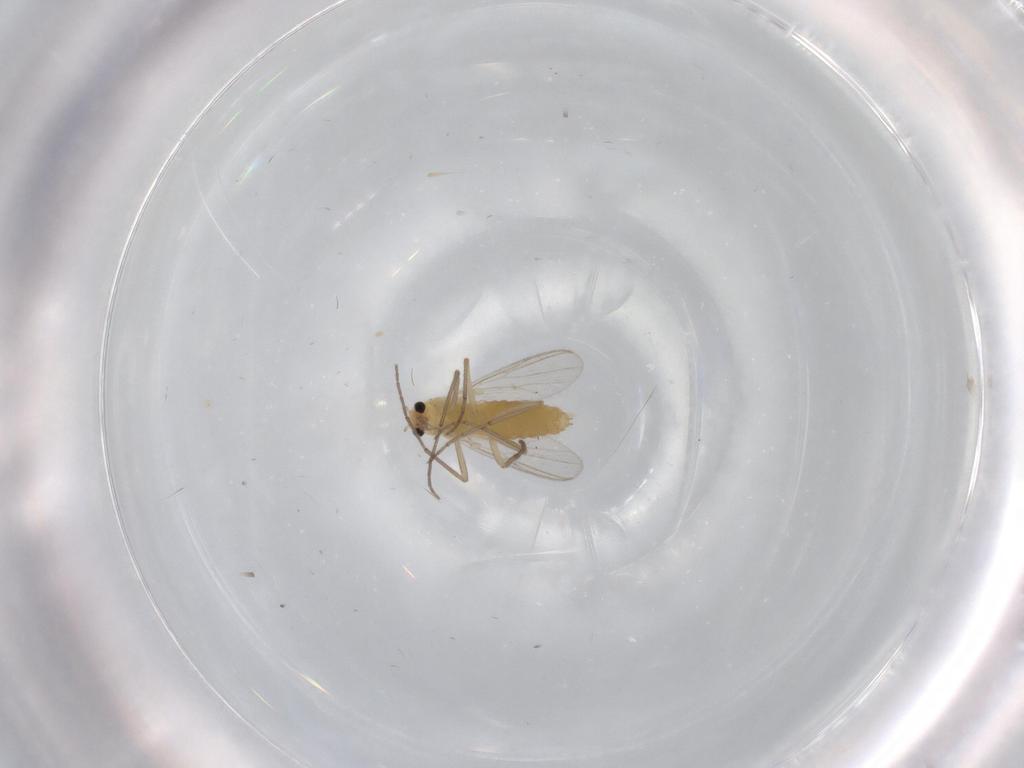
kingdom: Animalia
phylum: Arthropoda
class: Insecta
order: Diptera
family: Chironomidae
